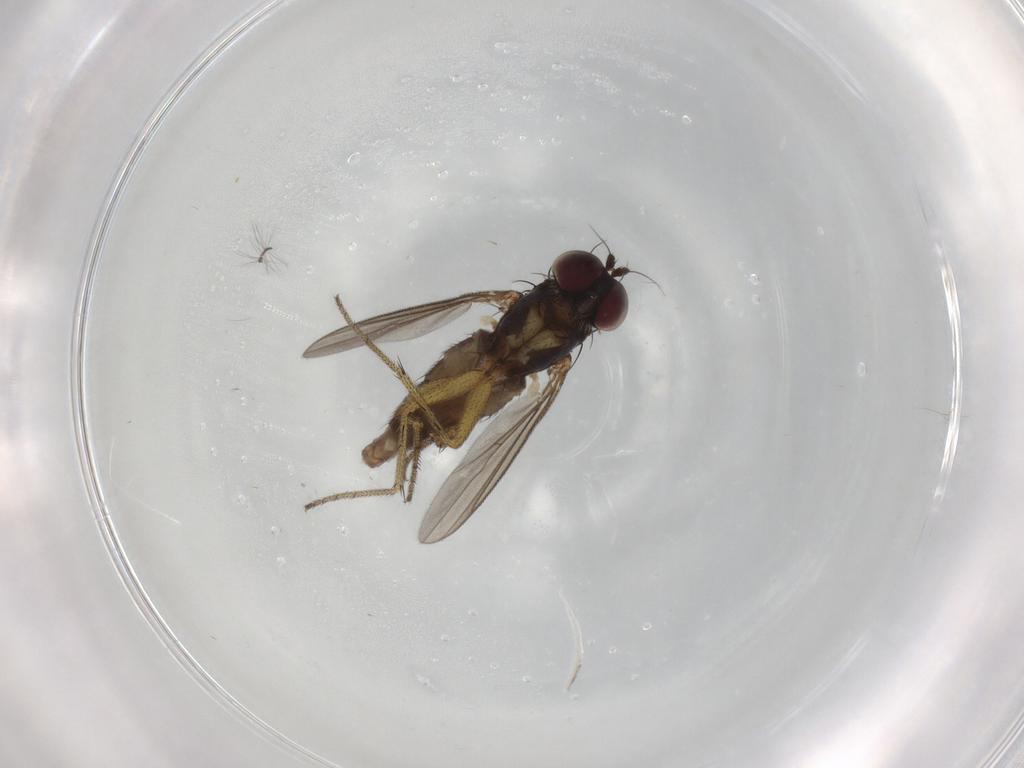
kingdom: Animalia
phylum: Arthropoda
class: Insecta
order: Diptera
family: Dolichopodidae
